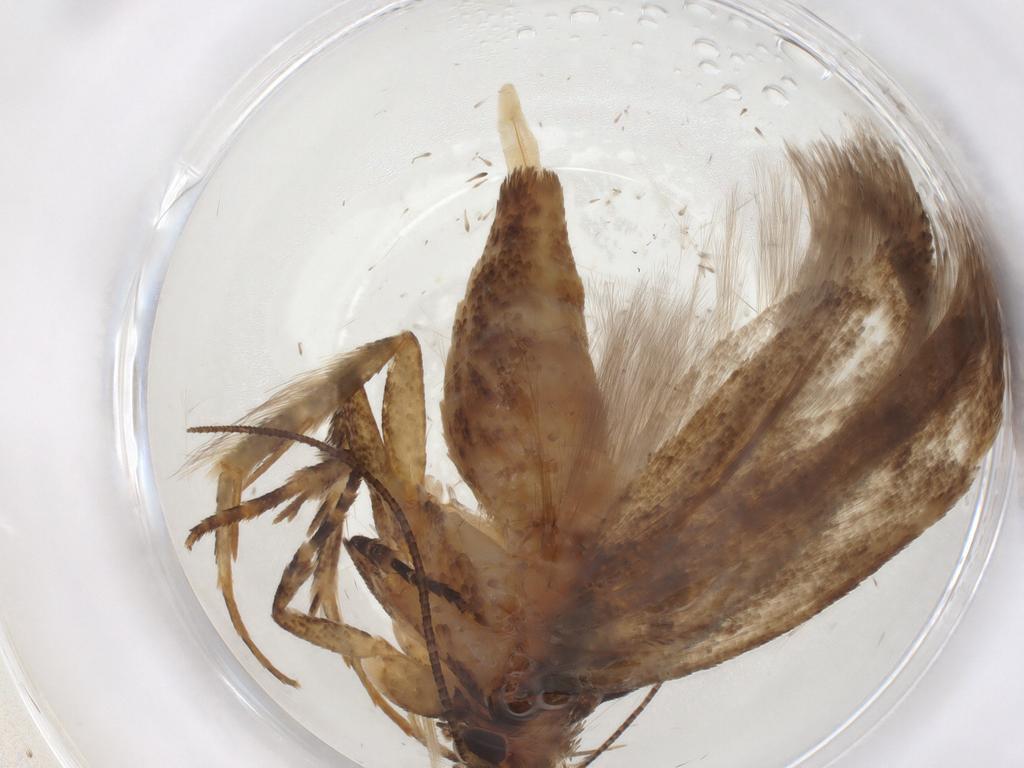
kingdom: Animalia
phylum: Arthropoda
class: Insecta
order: Lepidoptera
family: Gelechiidae
